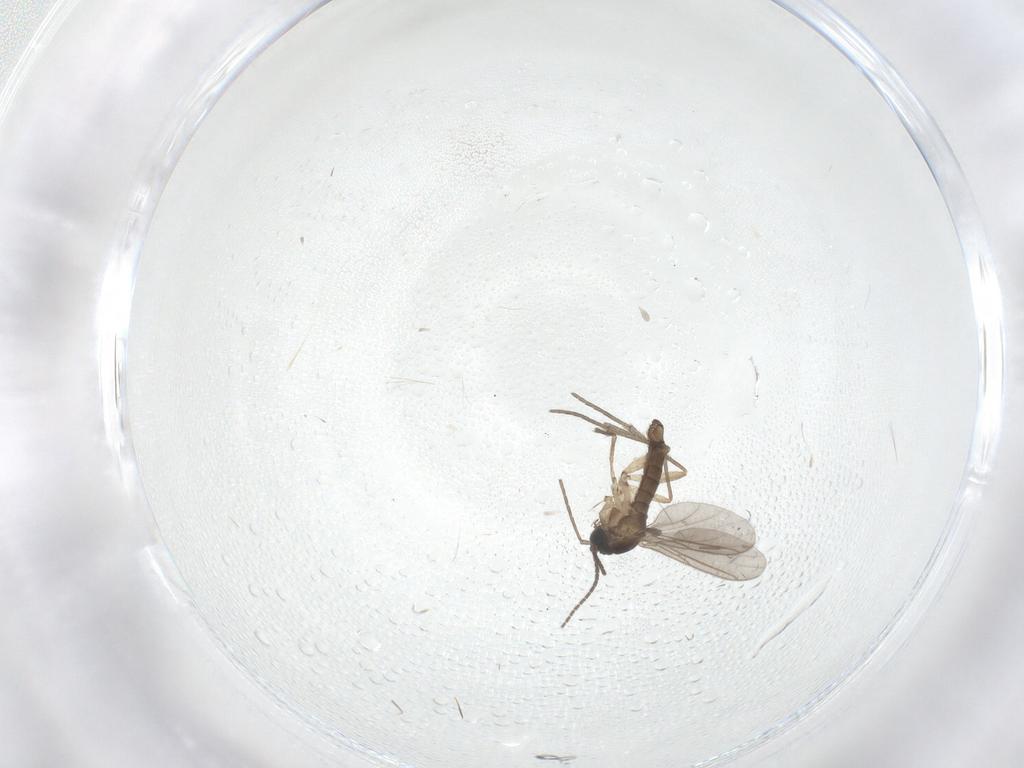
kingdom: Animalia
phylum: Arthropoda
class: Insecta
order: Diptera
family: Sciaridae
